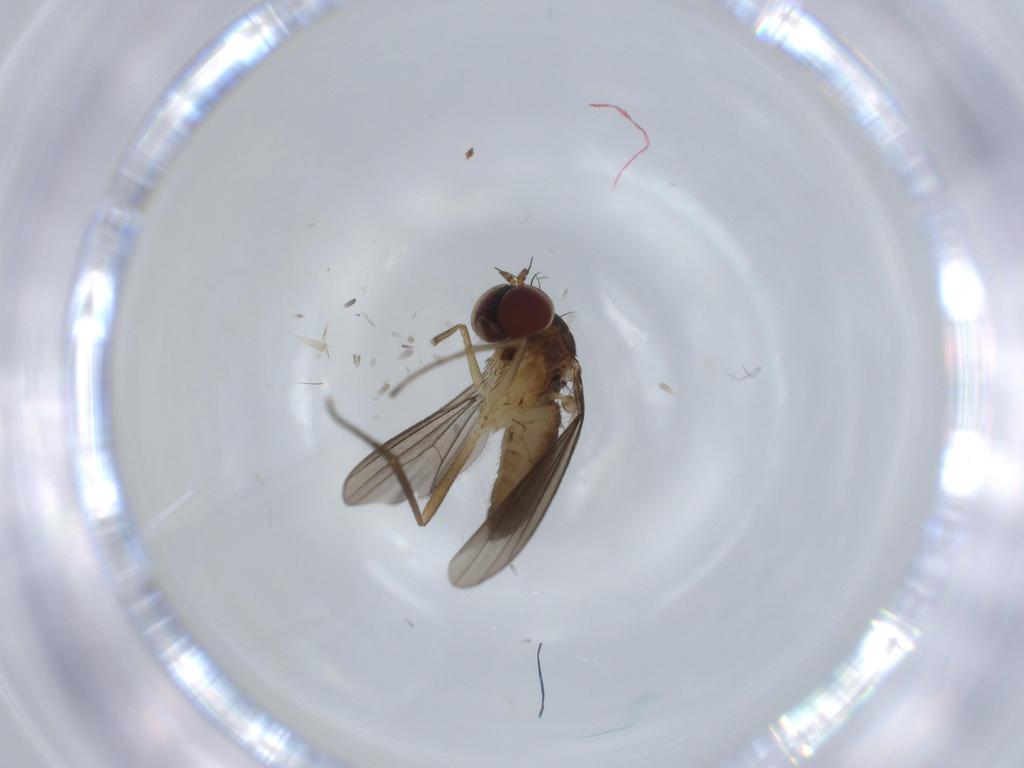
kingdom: Animalia
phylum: Arthropoda
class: Insecta
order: Diptera
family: Dolichopodidae
